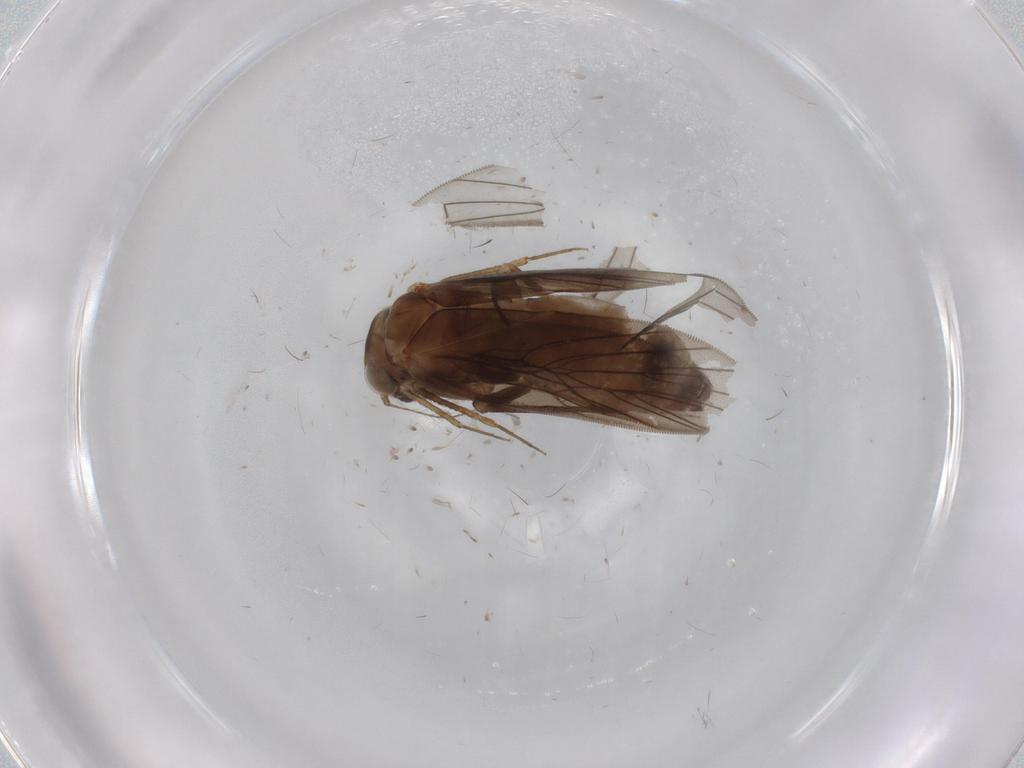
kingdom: Animalia
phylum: Arthropoda
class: Insecta
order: Psocodea
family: Lepidopsocidae
